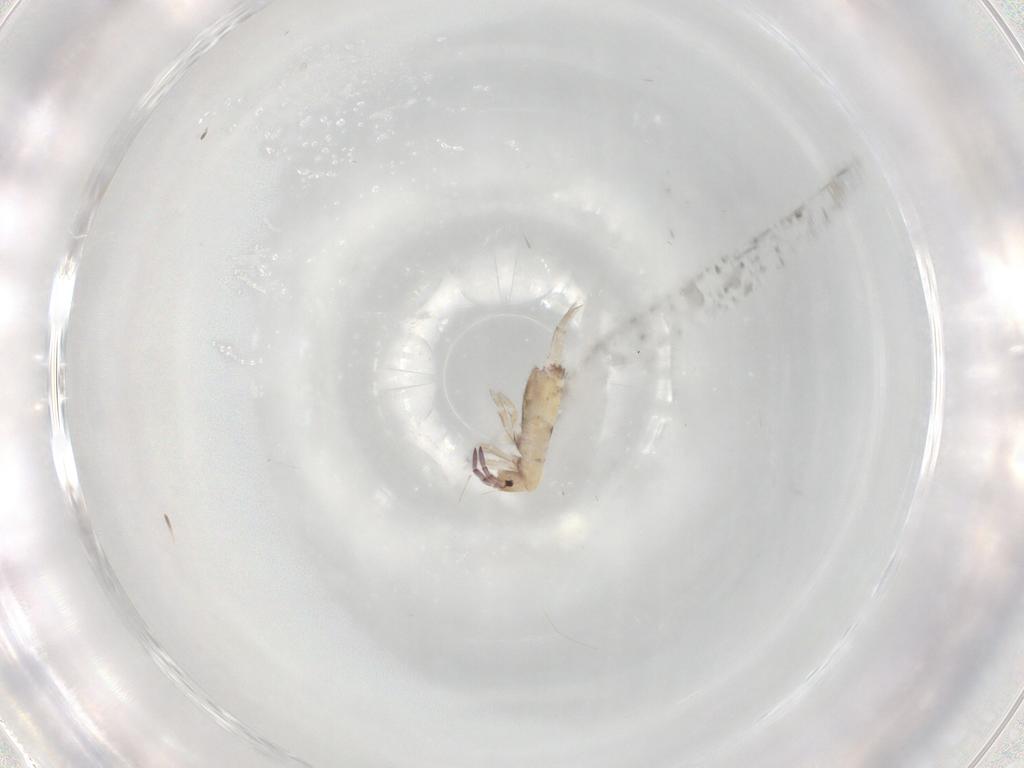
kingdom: Animalia
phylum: Arthropoda
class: Collembola
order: Entomobryomorpha
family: Entomobryidae
